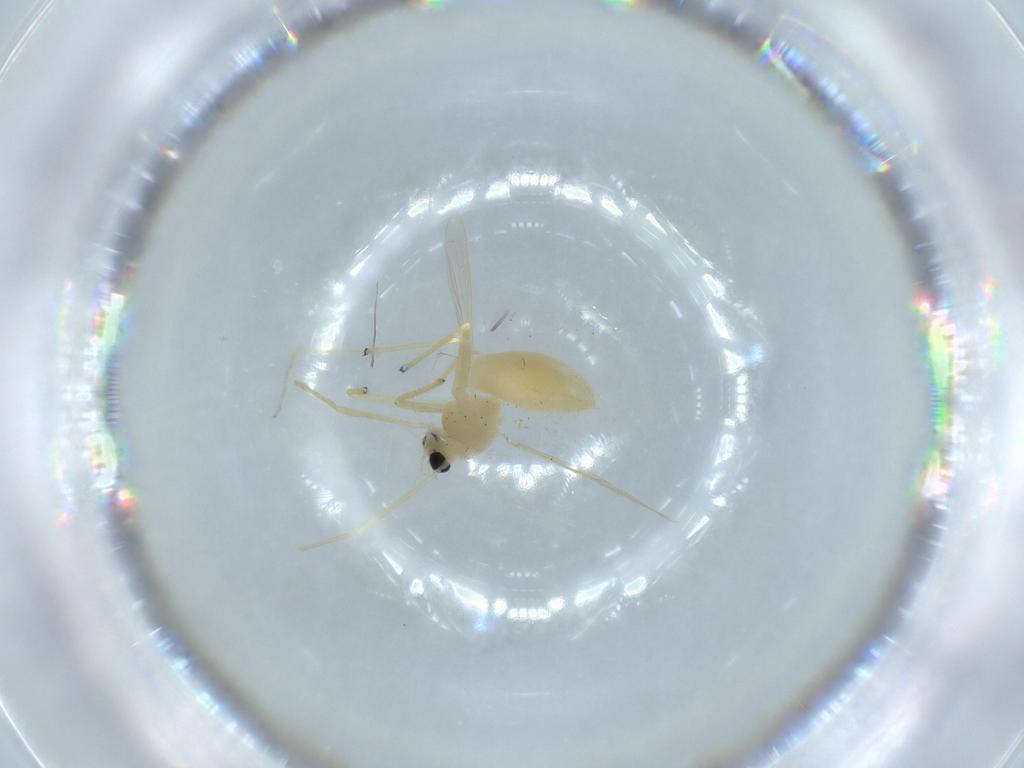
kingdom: Animalia
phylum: Arthropoda
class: Insecta
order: Diptera
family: Chironomidae
